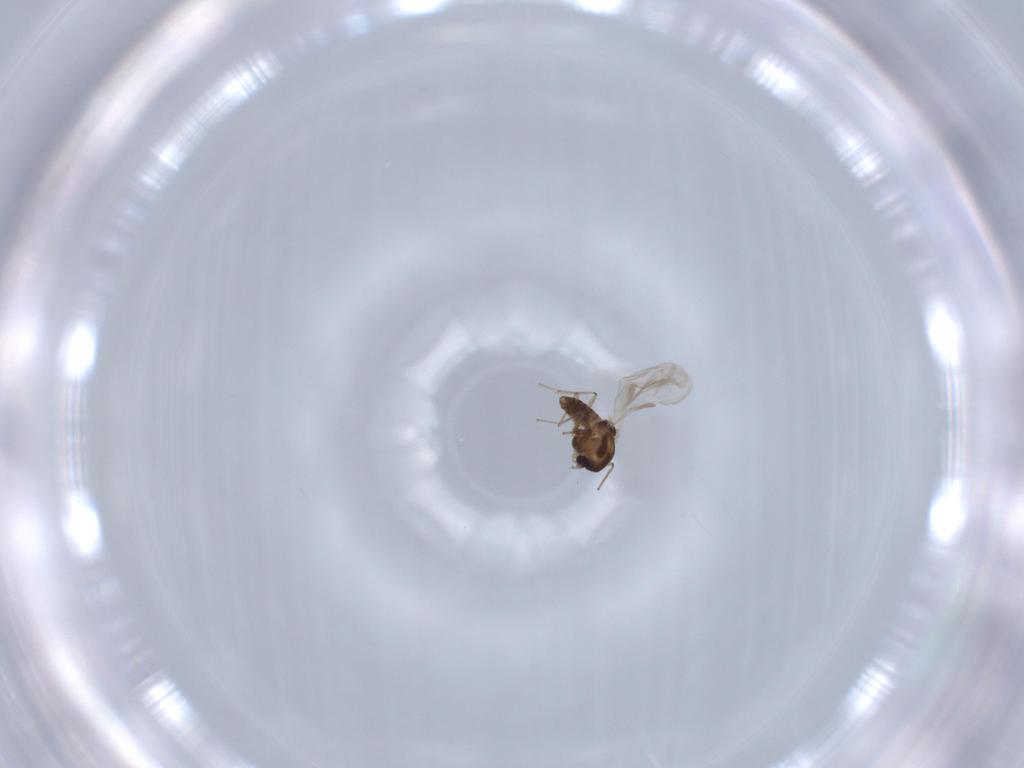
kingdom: Animalia
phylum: Arthropoda
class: Insecta
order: Diptera
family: Chironomidae
